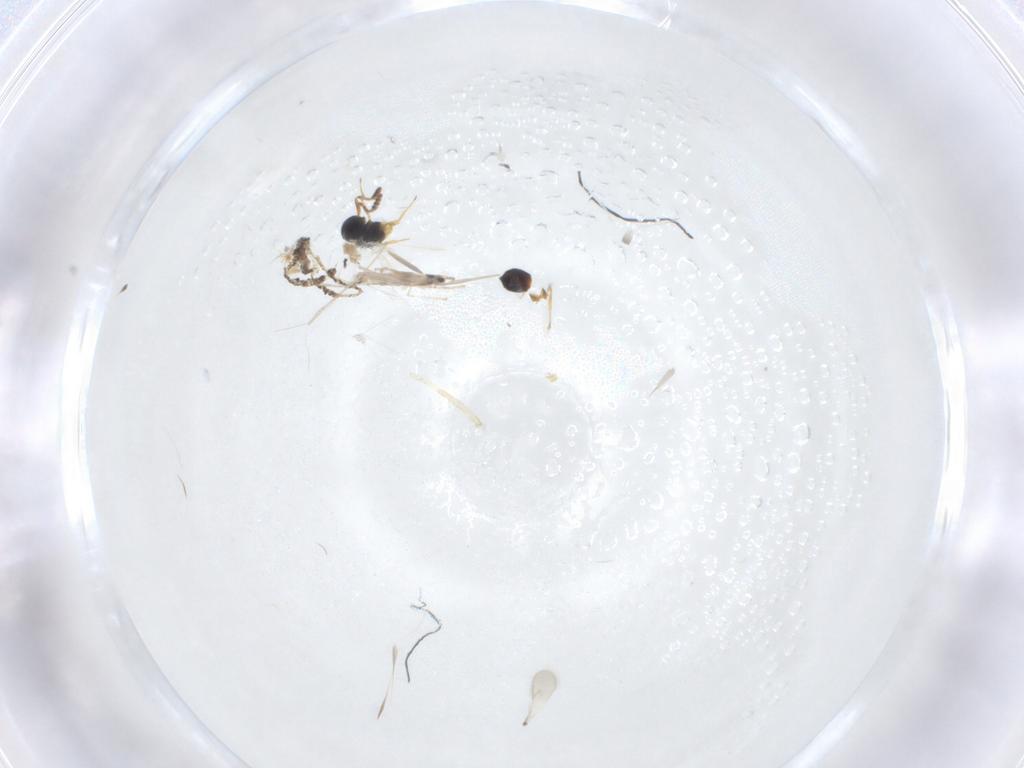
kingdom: Animalia
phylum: Arthropoda
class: Insecta
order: Diptera
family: Cecidomyiidae
